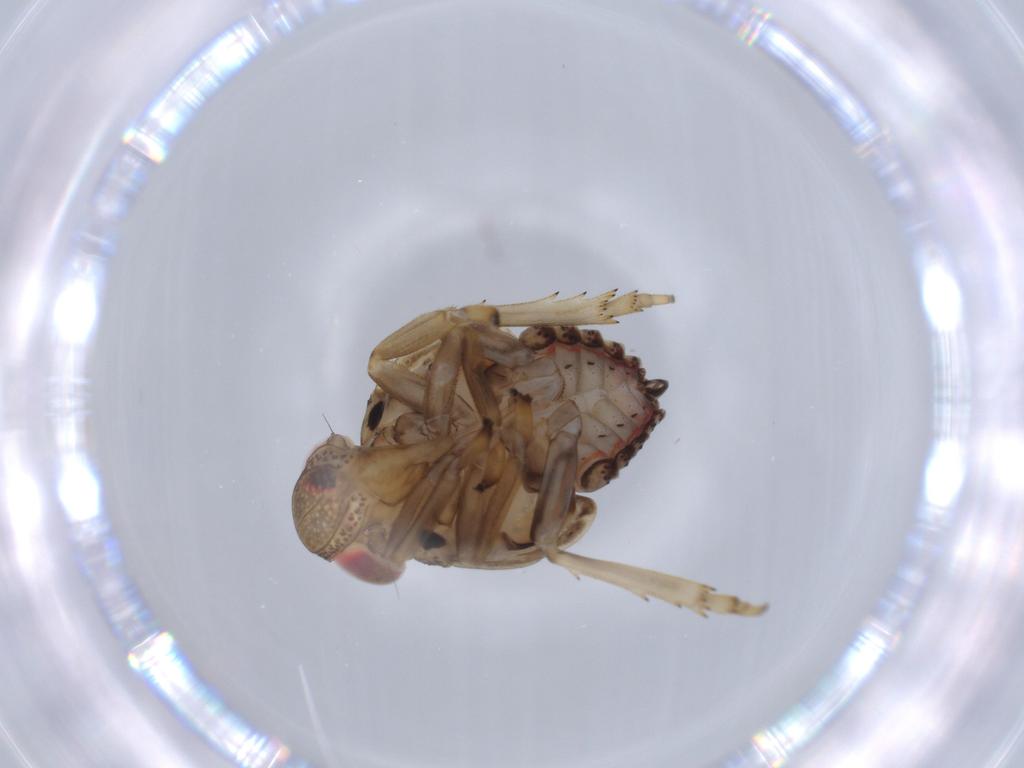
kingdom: Animalia
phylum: Arthropoda
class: Insecta
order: Hemiptera
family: Issidae
